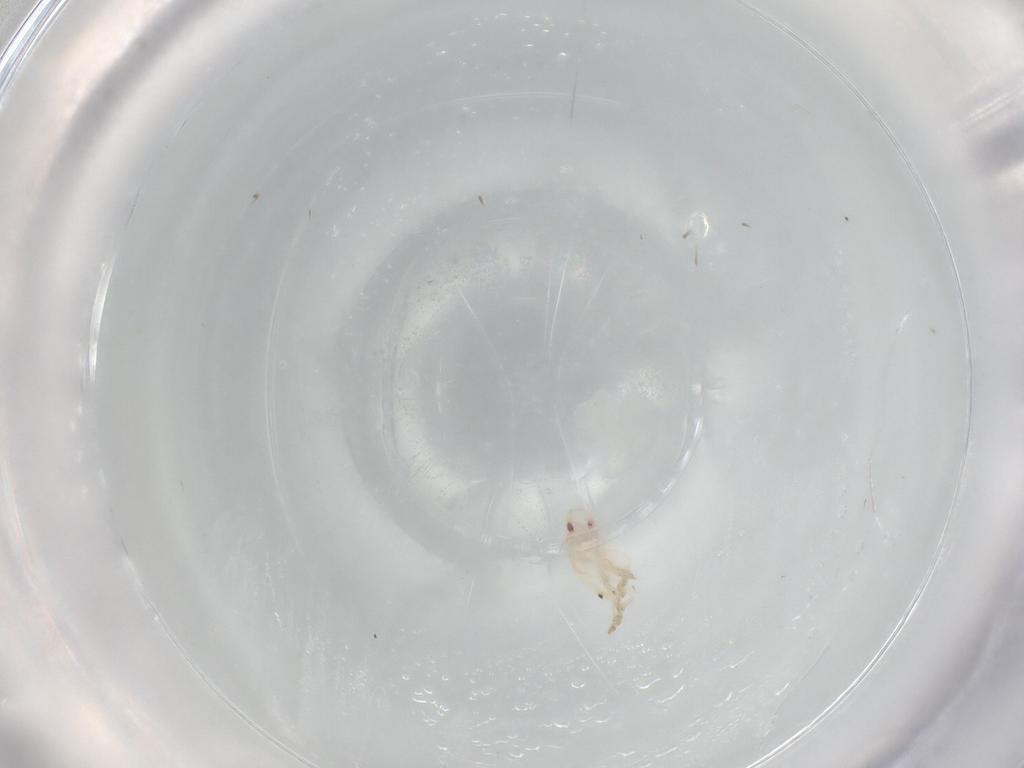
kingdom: Animalia
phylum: Arthropoda
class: Insecta
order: Hemiptera
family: Flatidae
